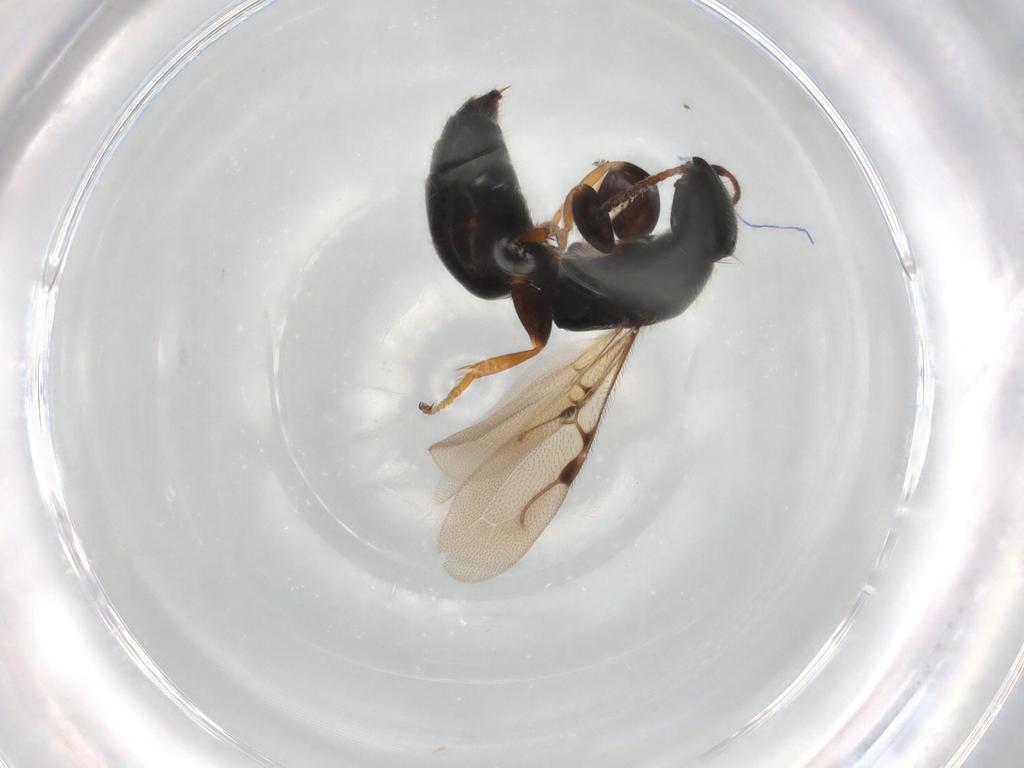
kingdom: Animalia
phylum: Arthropoda
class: Insecta
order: Hymenoptera
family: Bethylidae
